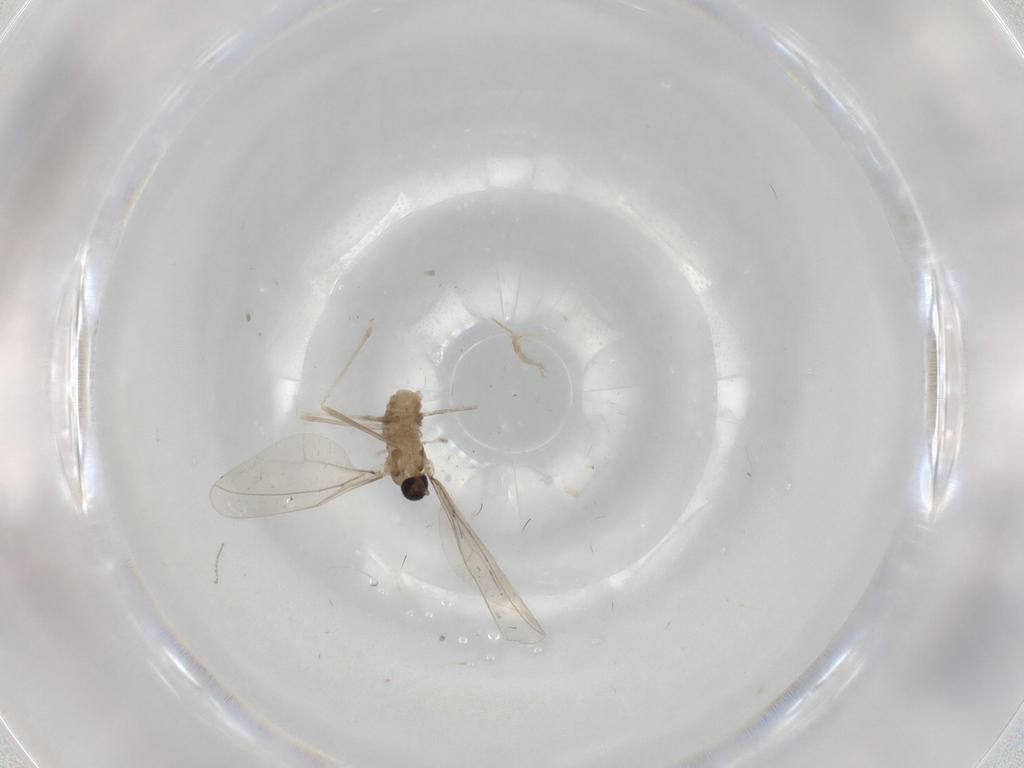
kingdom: Animalia
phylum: Arthropoda
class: Insecta
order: Diptera
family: Cecidomyiidae
